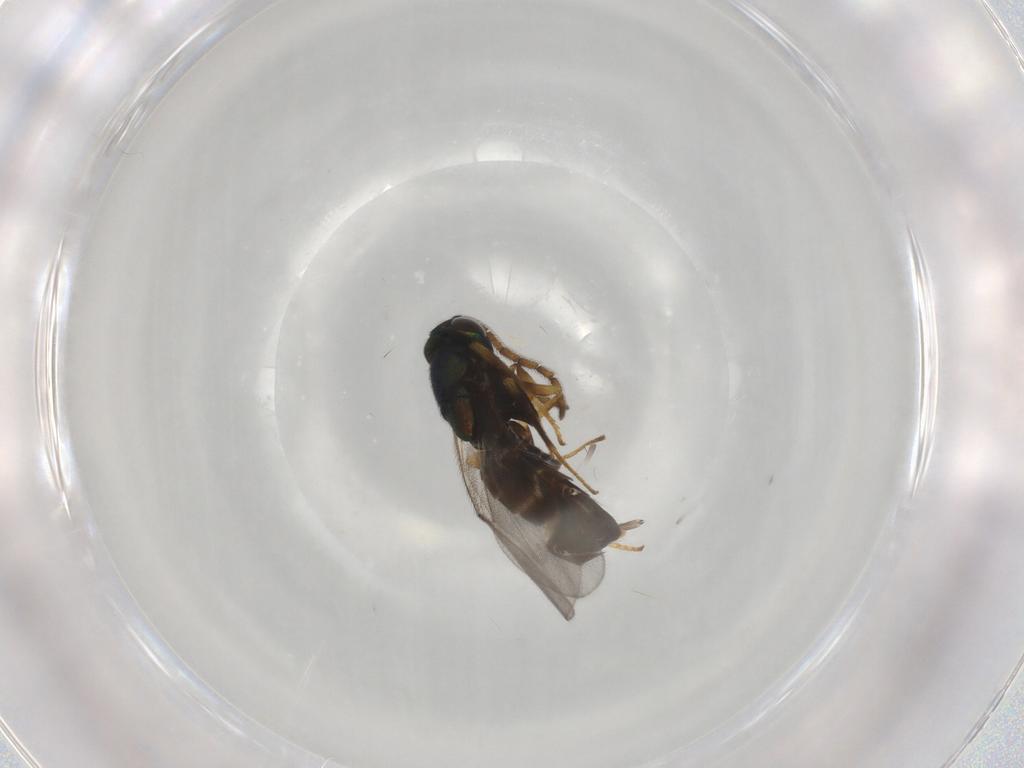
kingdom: Animalia
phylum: Arthropoda
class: Insecta
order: Hymenoptera
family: Encyrtidae
